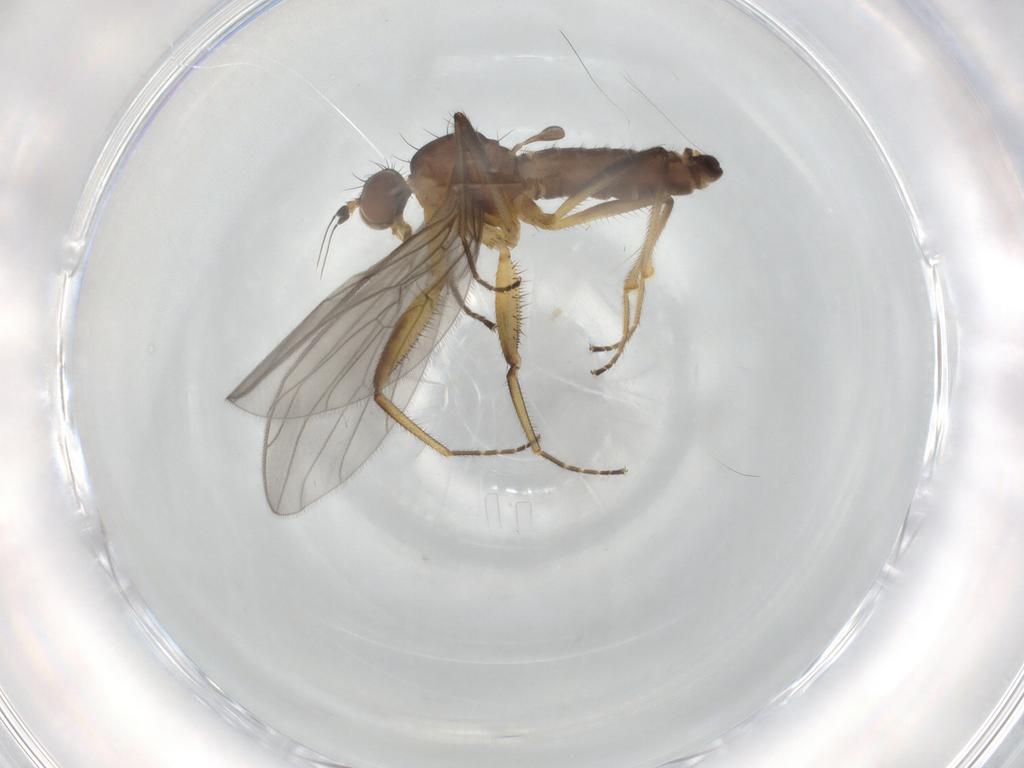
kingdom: Animalia
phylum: Arthropoda
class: Insecta
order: Diptera
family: Empididae
